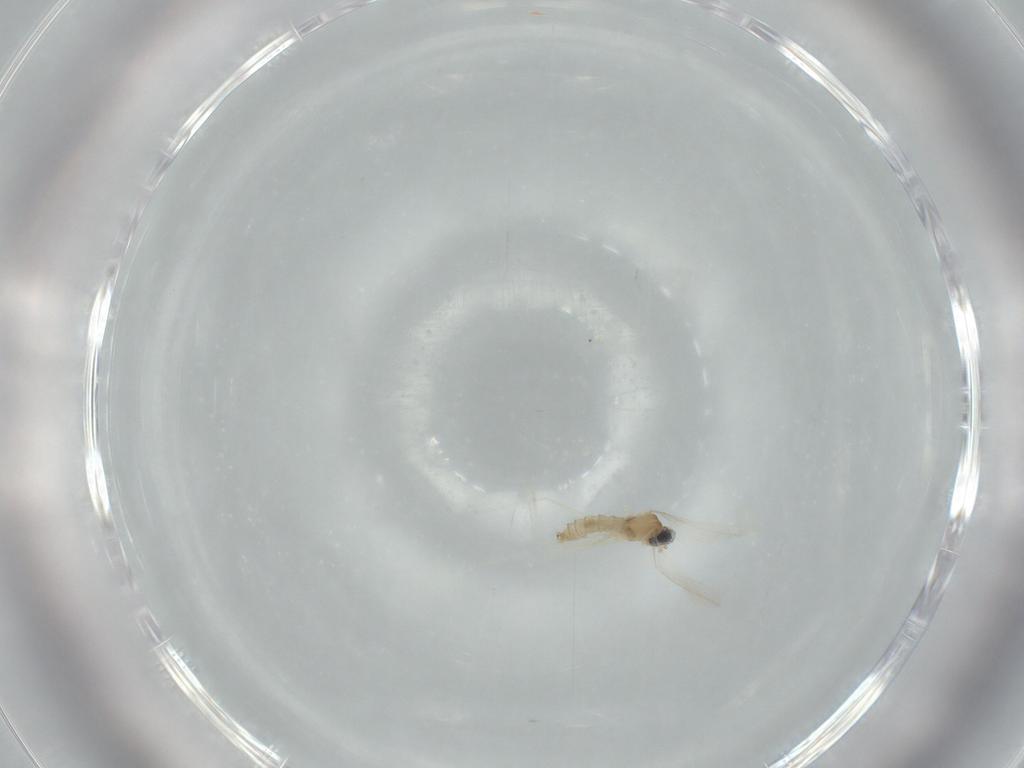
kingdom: Animalia
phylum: Arthropoda
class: Insecta
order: Diptera
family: Cecidomyiidae
